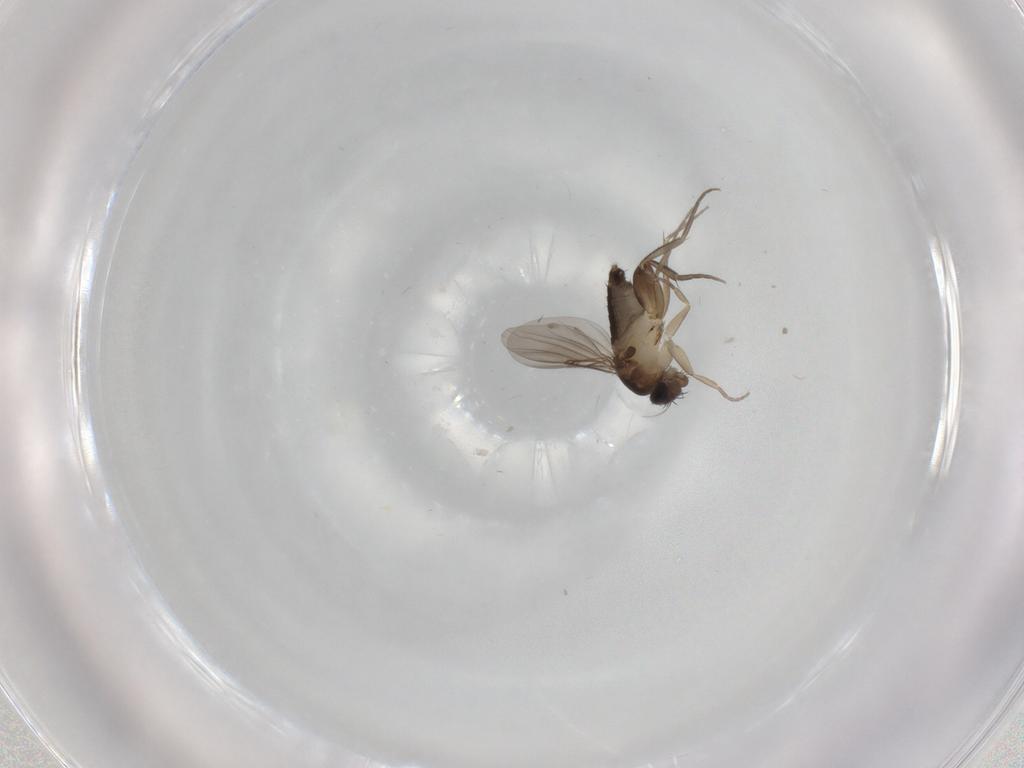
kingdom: Animalia
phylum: Arthropoda
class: Insecta
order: Diptera
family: Phoridae
